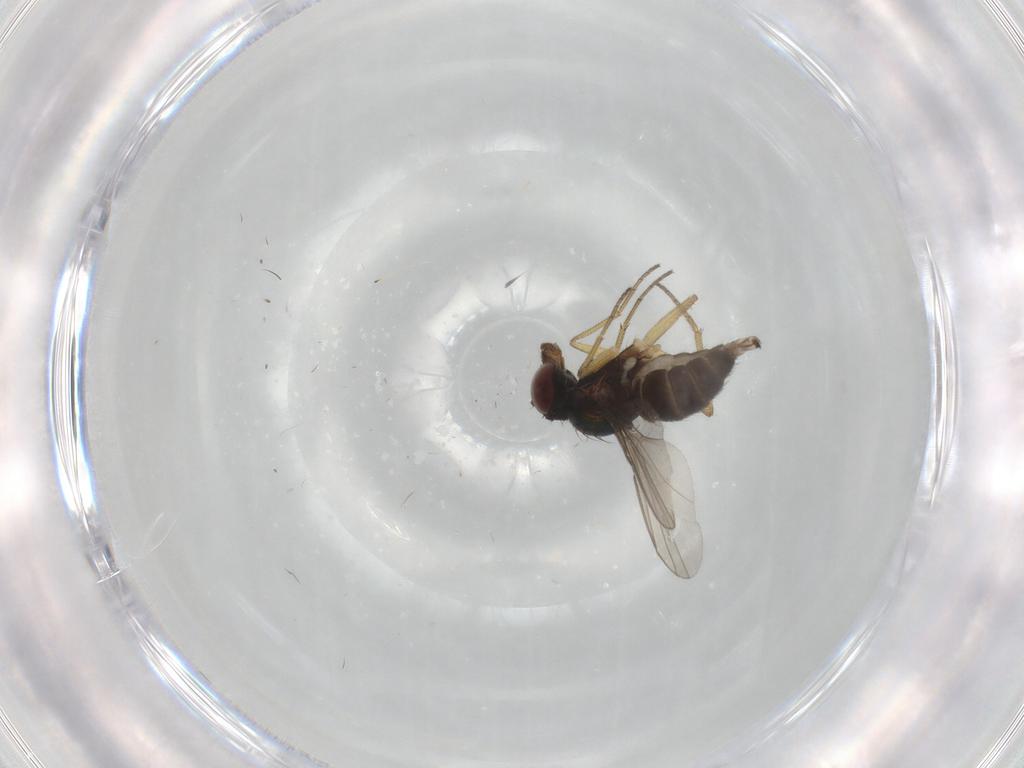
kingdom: Animalia
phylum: Arthropoda
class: Insecta
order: Diptera
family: Dolichopodidae
